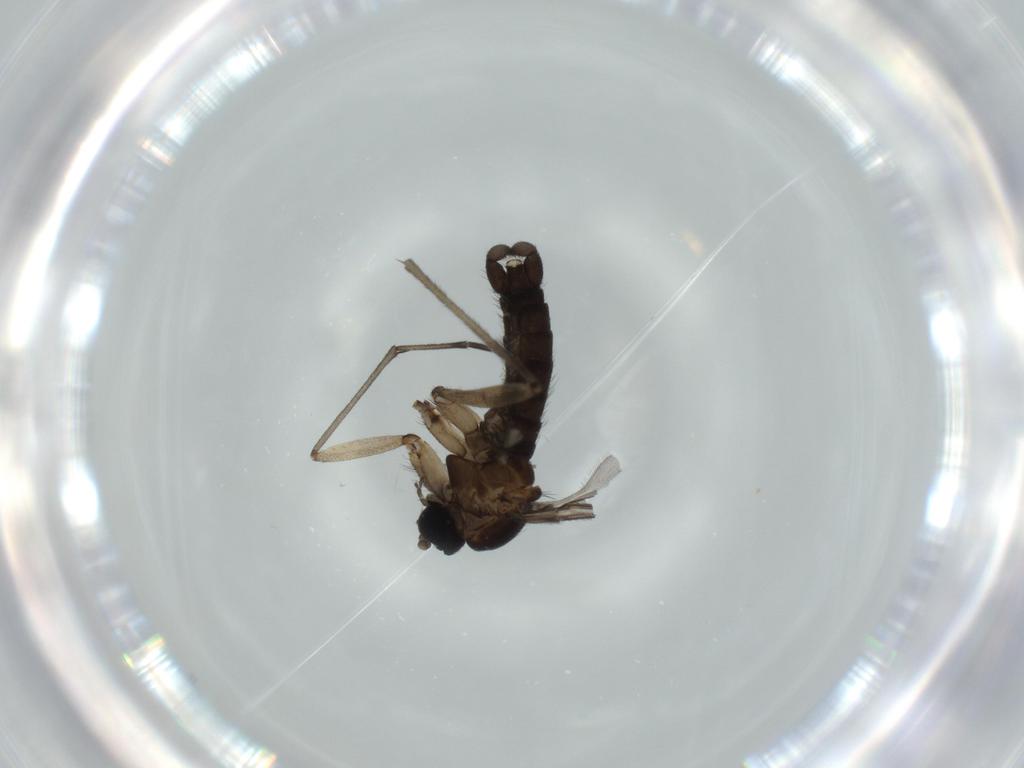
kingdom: Animalia
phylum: Arthropoda
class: Insecta
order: Diptera
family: Sciaridae
